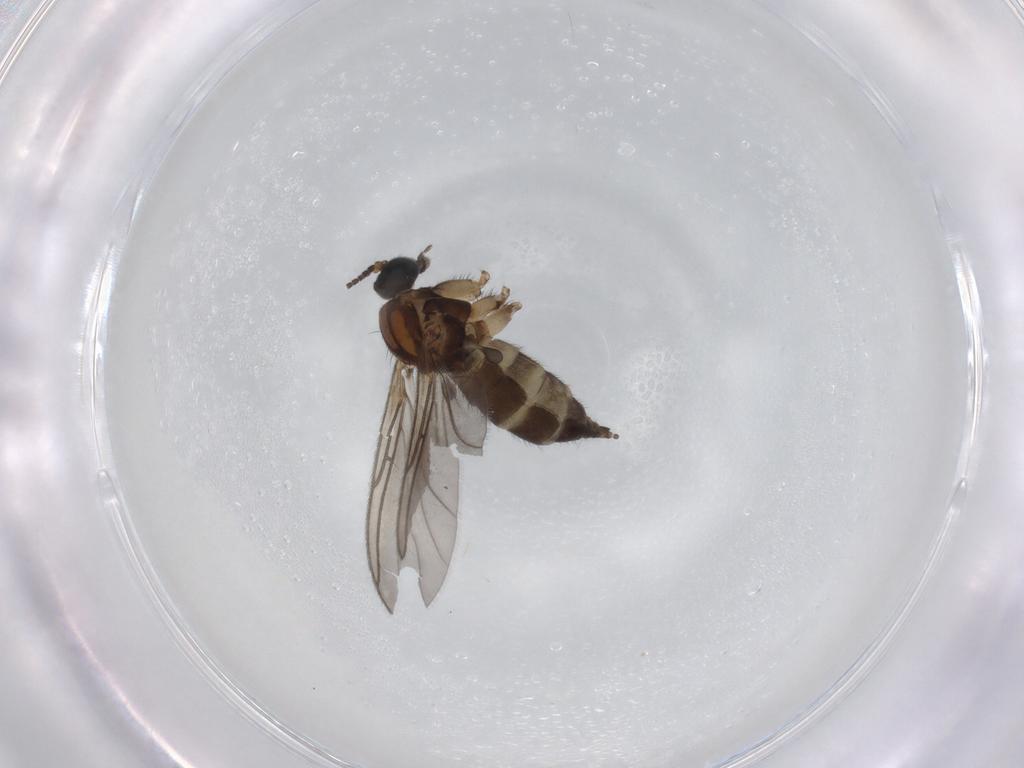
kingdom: Animalia
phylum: Arthropoda
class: Insecta
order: Diptera
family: Sciaridae
